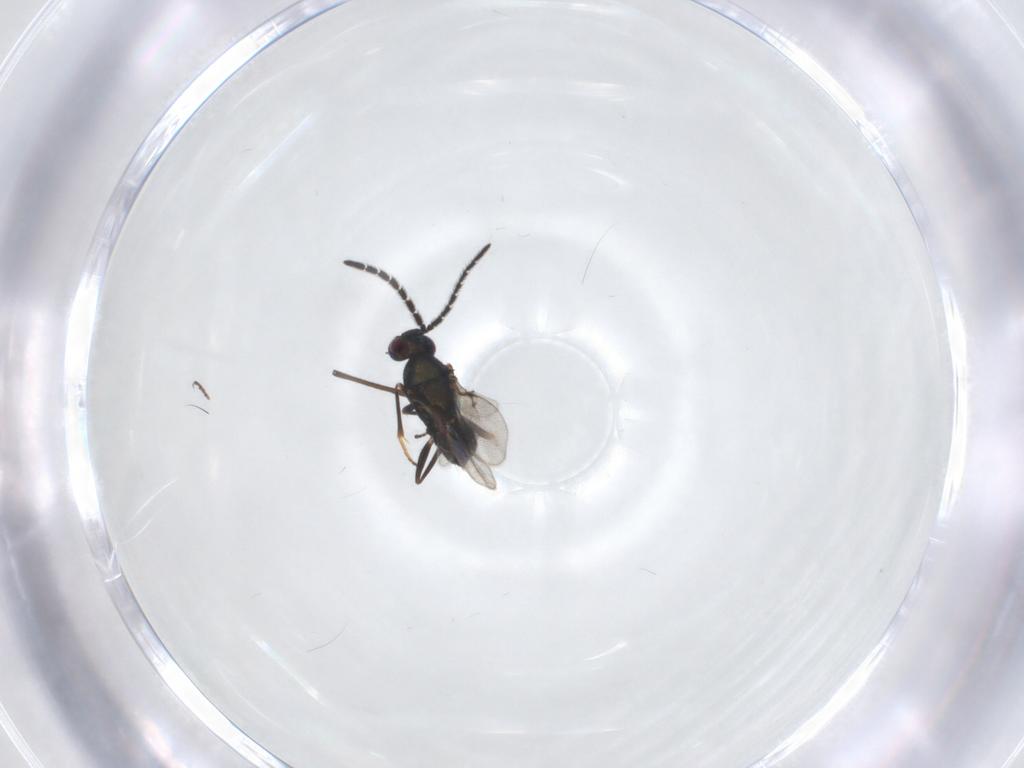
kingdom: Animalia
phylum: Arthropoda
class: Insecta
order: Hymenoptera
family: Encyrtidae
